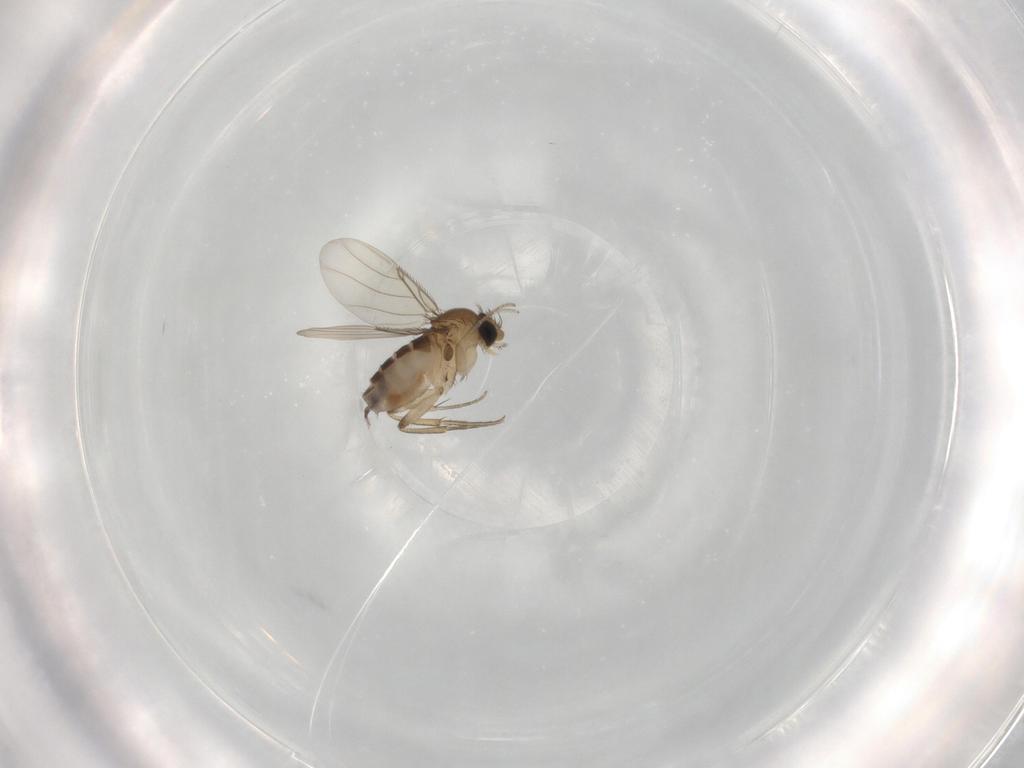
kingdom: Animalia
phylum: Arthropoda
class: Insecta
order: Diptera
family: Phoridae
